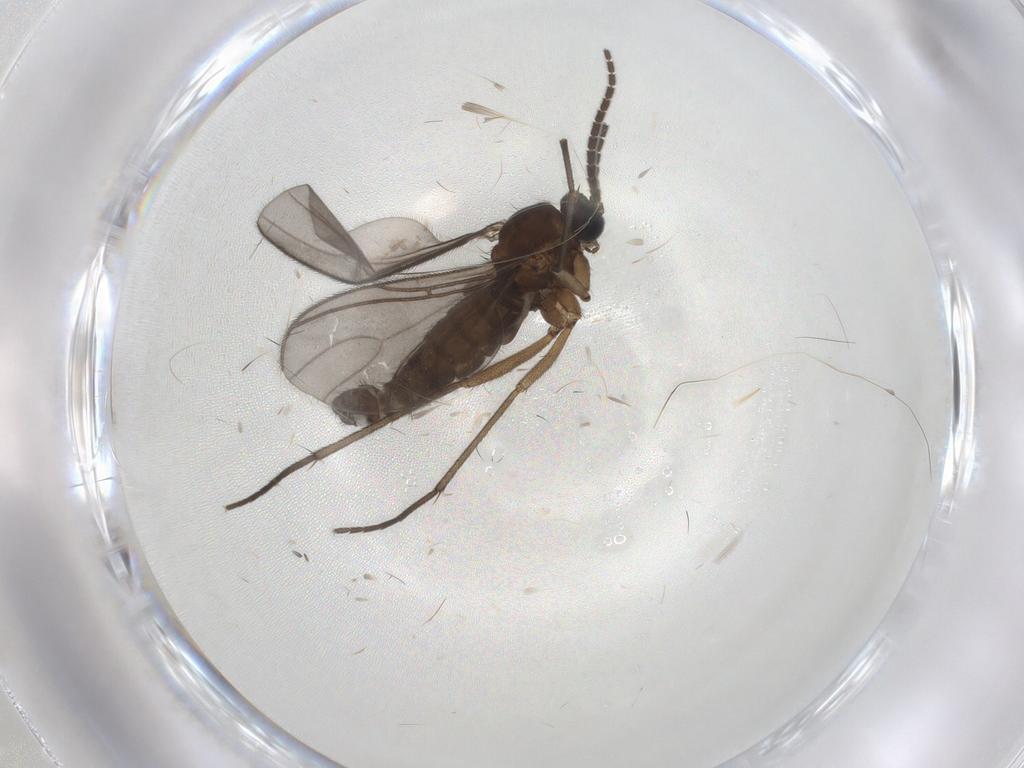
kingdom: Animalia
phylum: Arthropoda
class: Insecta
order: Diptera
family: Sciaridae
